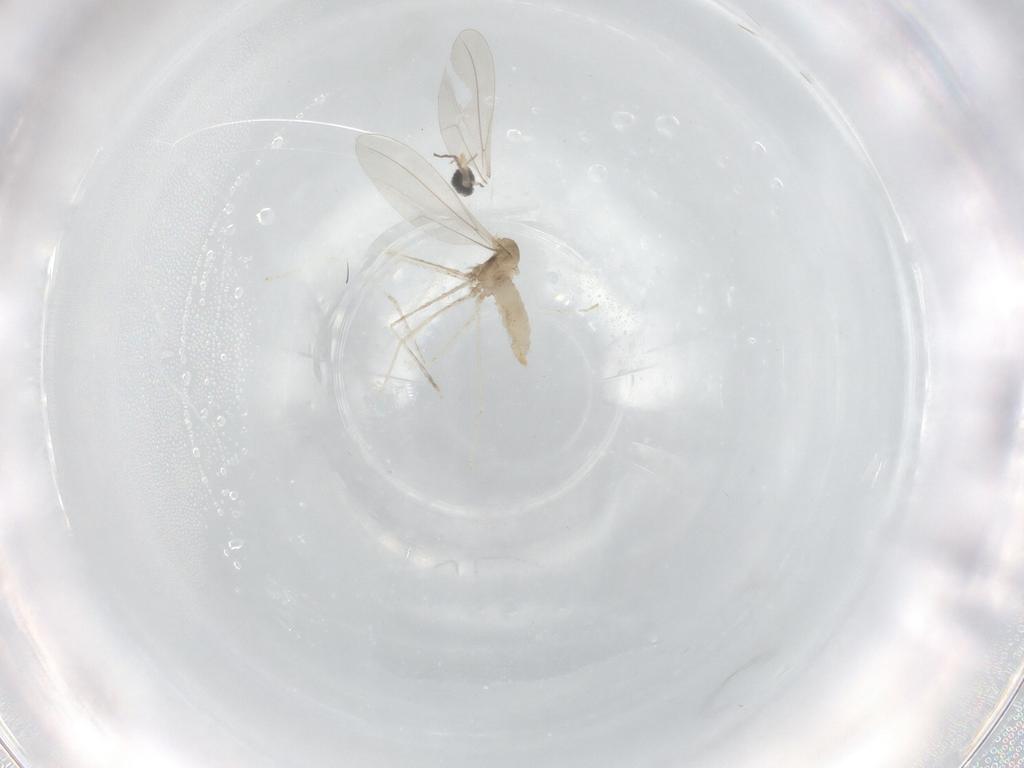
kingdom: Animalia
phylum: Arthropoda
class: Insecta
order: Diptera
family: Cecidomyiidae
